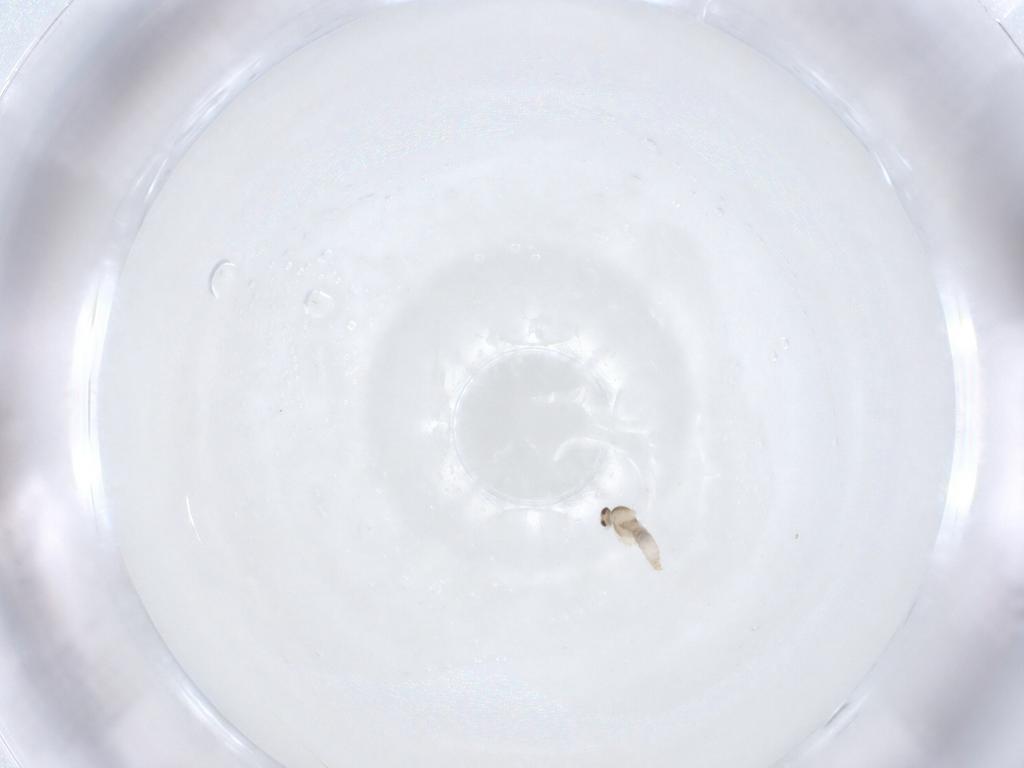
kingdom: Animalia
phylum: Arthropoda
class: Insecta
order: Diptera
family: Cecidomyiidae
